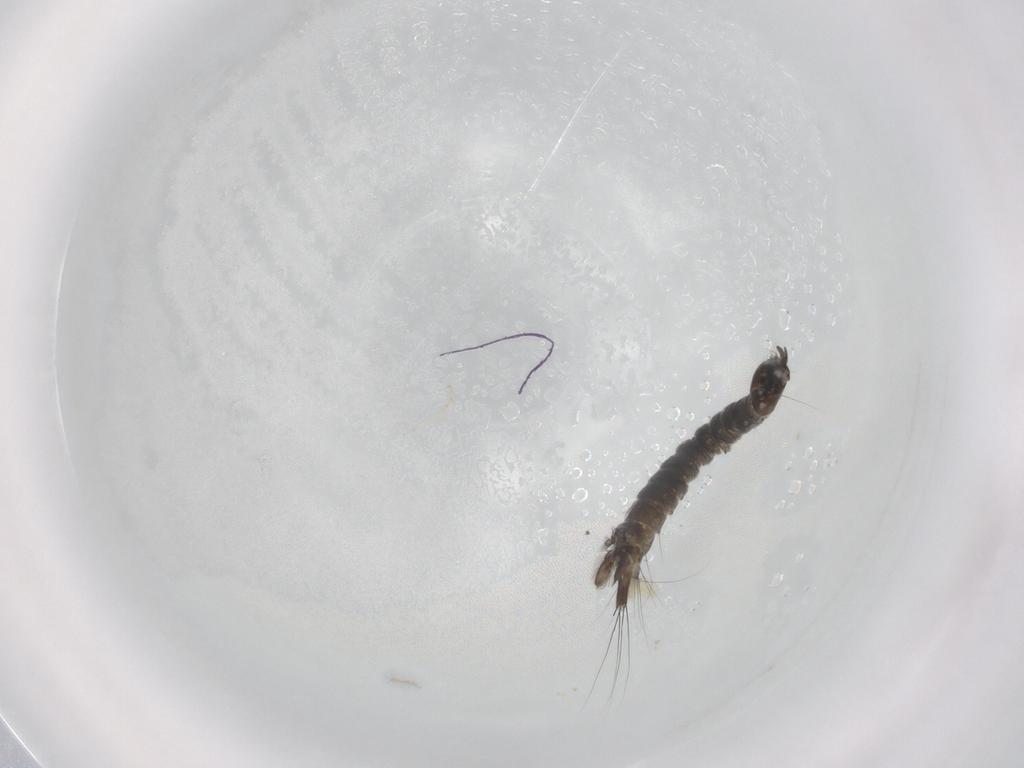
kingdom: Animalia
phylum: Arthropoda
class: Insecta
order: Diptera
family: Dixidae
